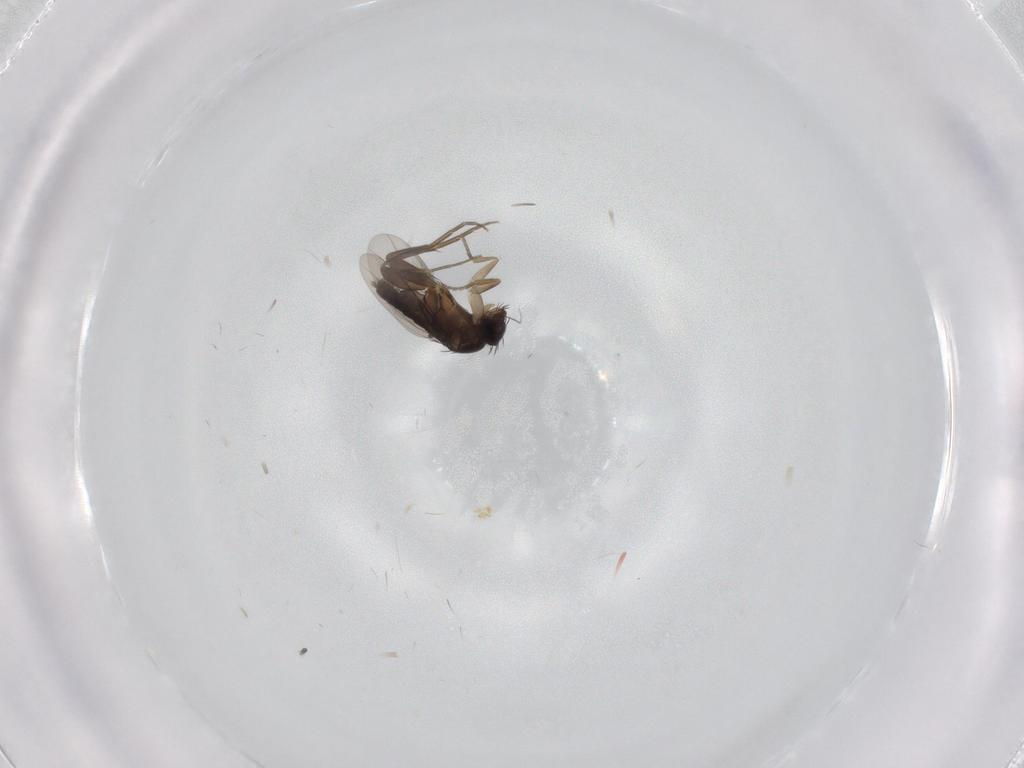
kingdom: Animalia
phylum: Arthropoda
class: Insecta
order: Diptera
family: Phoridae
